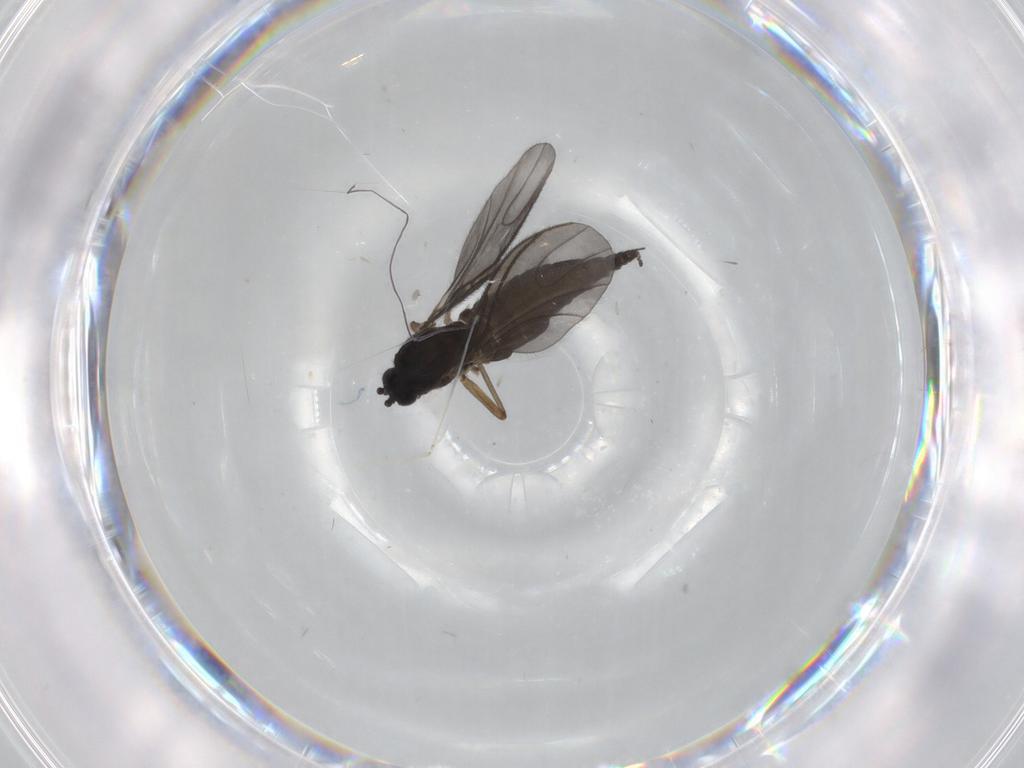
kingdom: Animalia
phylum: Arthropoda
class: Insecta
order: Diptera
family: Sciaridae
